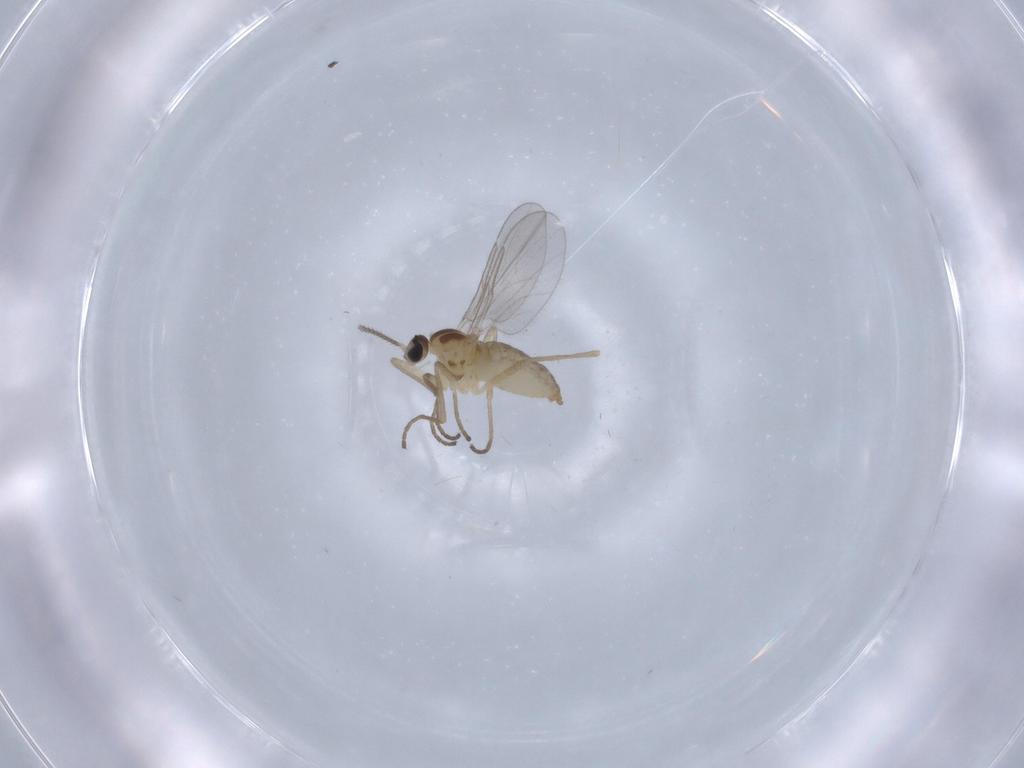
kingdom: Animalia
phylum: Arthropoda
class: Insecta
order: Diptera
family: Cecidomyiidae
